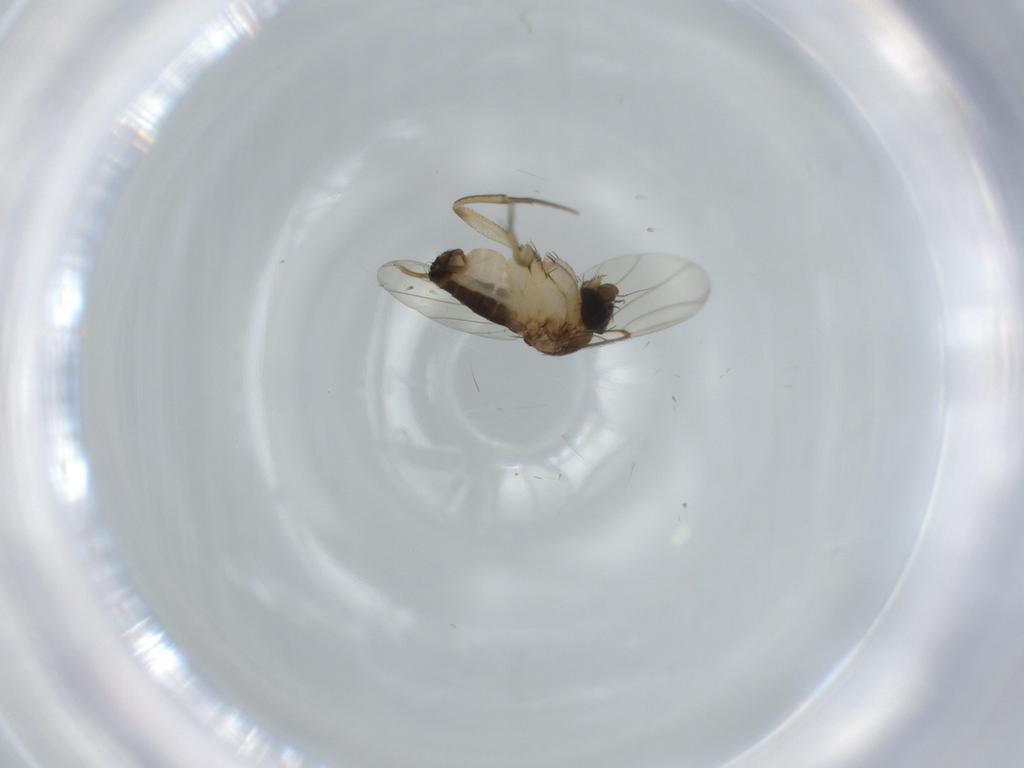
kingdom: Animalia
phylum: Arthropoda
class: Insecta
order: Diptera
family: Phoridae
